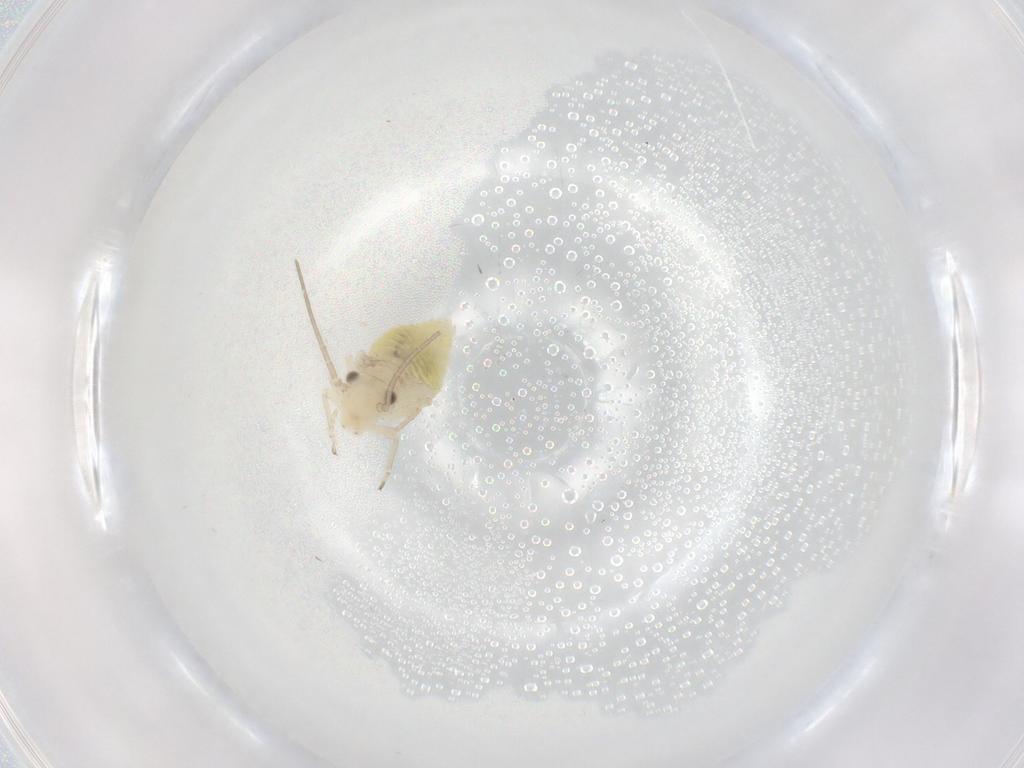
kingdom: Animalia
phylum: Arthropoda
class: Insecta
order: Psocodea
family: Caeciliusidae
